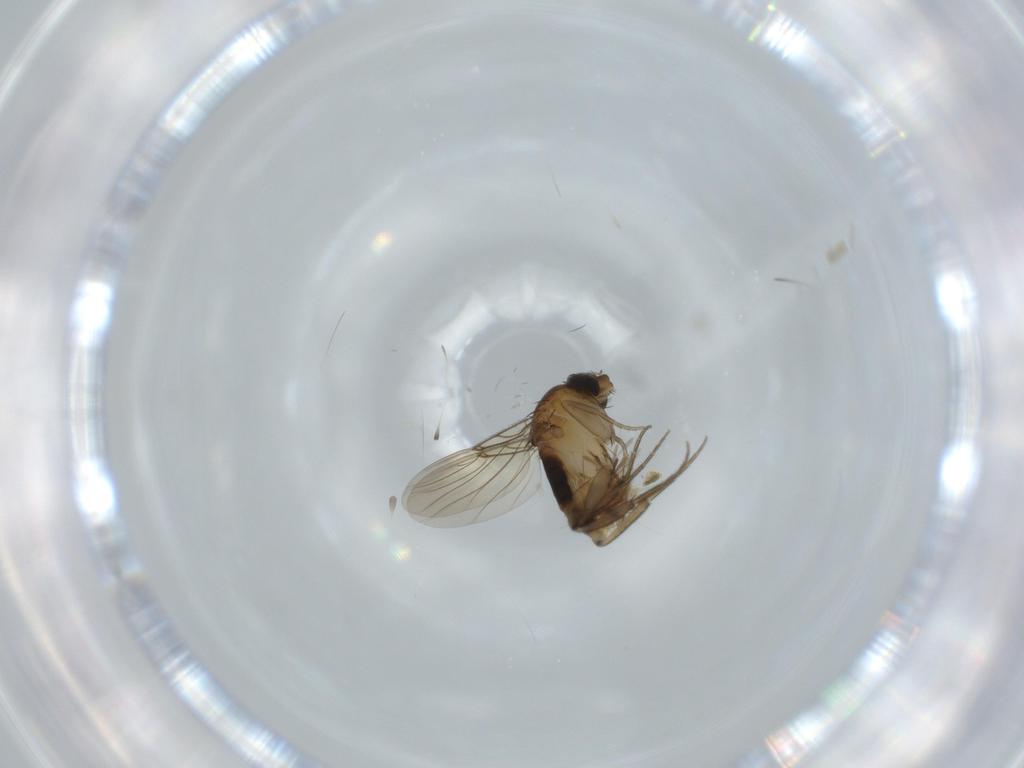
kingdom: Animalia
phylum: Arthropoda
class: Insecta
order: Diptera
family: Phoridae
